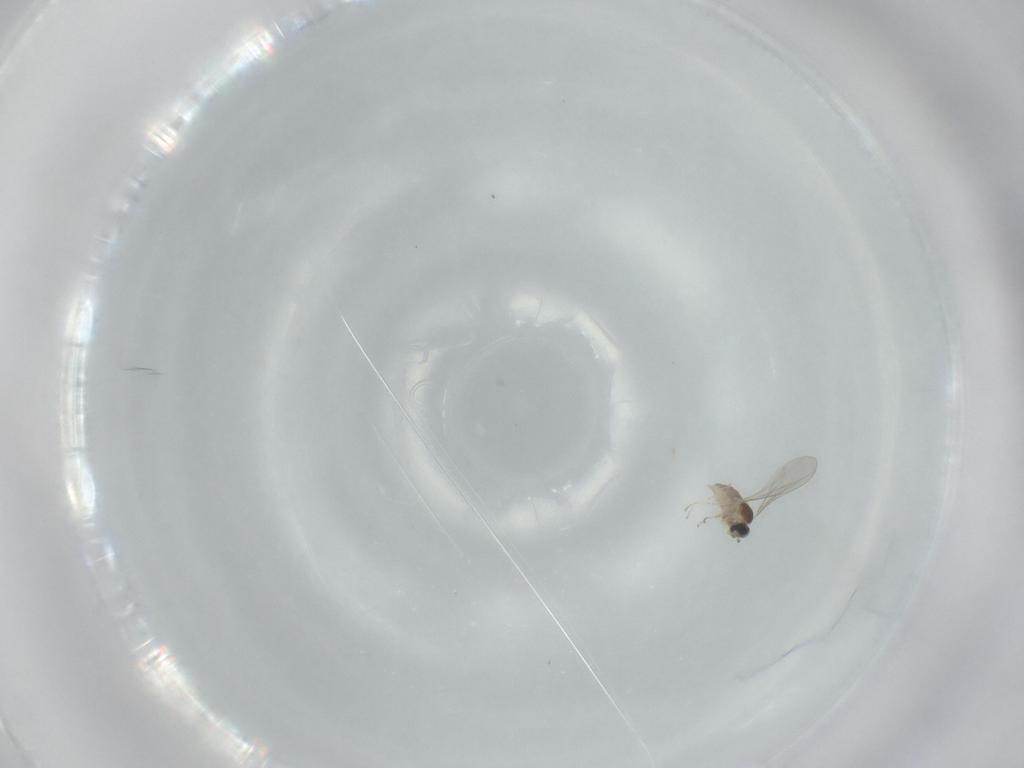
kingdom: Animalia
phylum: Arthropoda
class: Insecta
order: Diptera
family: Cecidomyiidae
